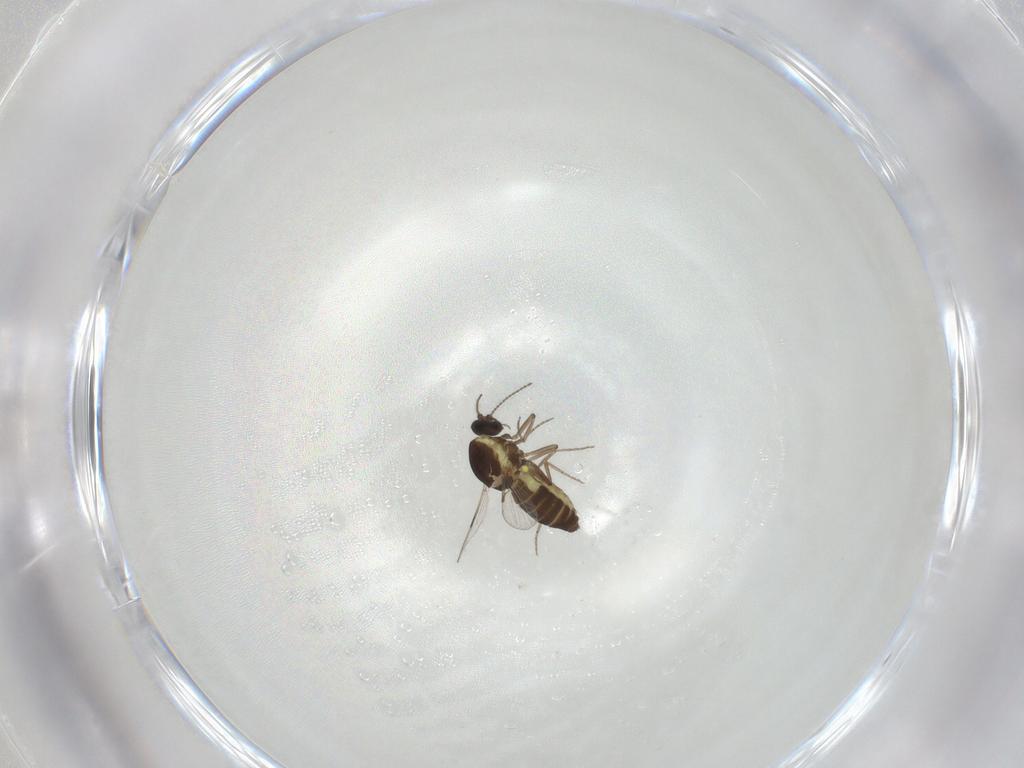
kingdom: Animalia
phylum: Arthropoda
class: Insecta
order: Diptera
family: Ceratopogonidae
